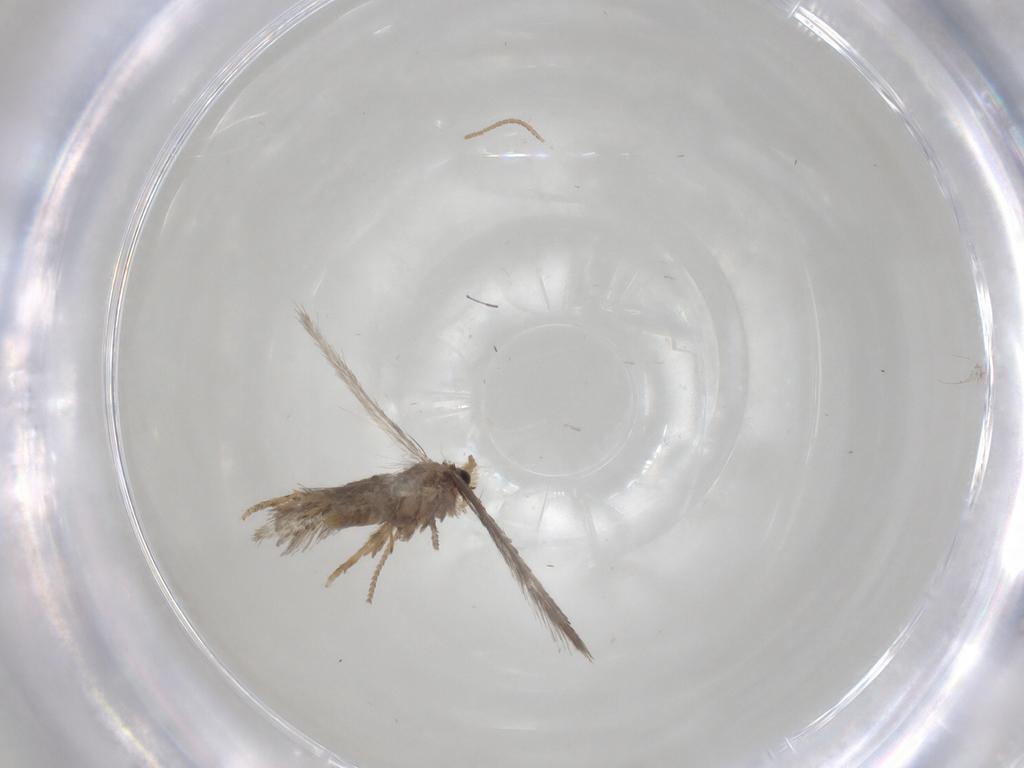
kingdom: Animalia
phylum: Arthropoda
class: Insecta
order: Lepidoptera
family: Nepticulidae
